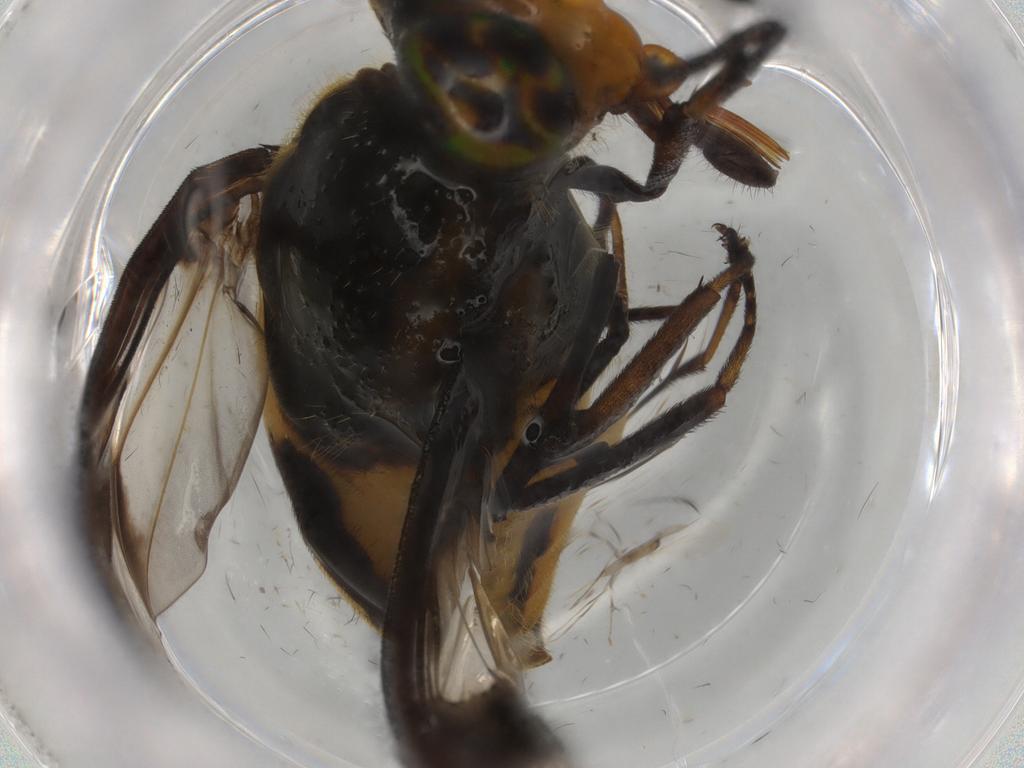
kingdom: Animalia
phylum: Arthropoda
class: Insecta
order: Diptera
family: Tabanidae
